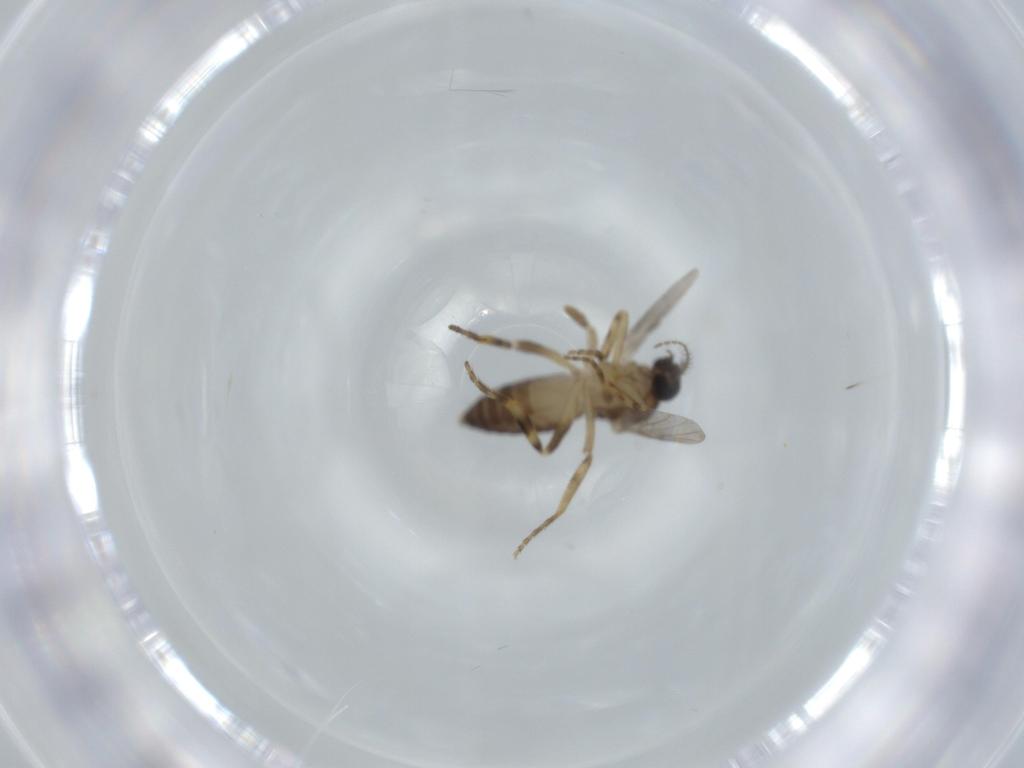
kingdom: Animalia
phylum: Arthropoda
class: Insecta
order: Diptera
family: Ceratopogonidae
